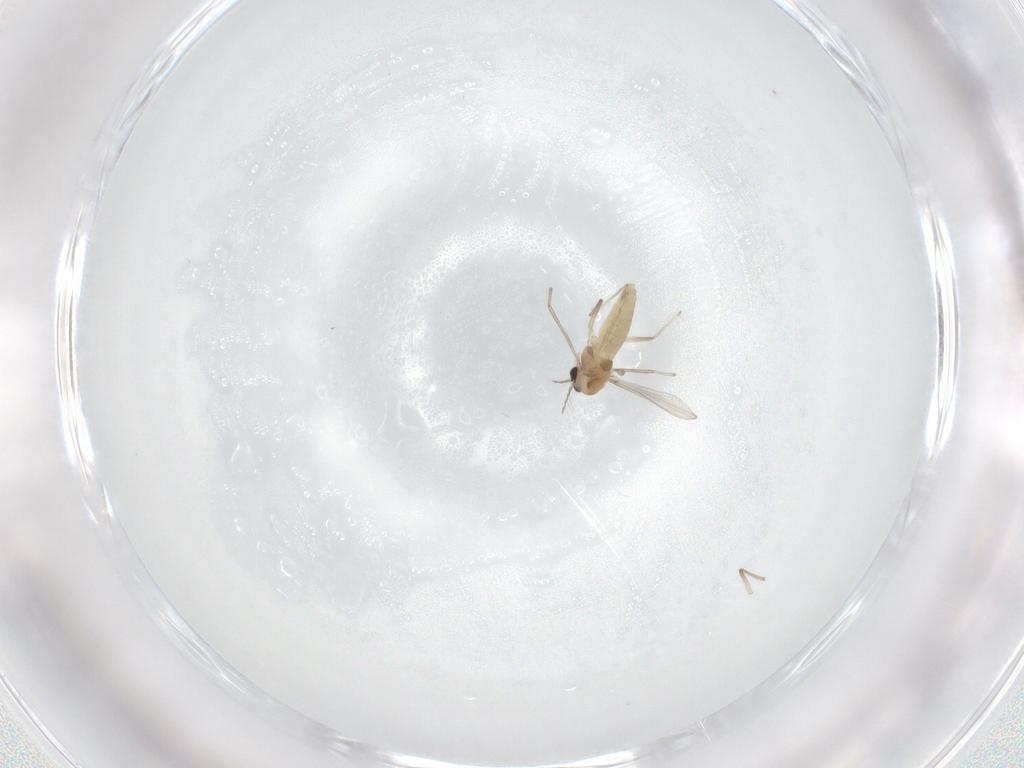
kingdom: Animalia
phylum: Arthropoda
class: Insecta
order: Diptera
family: Chironomidae
